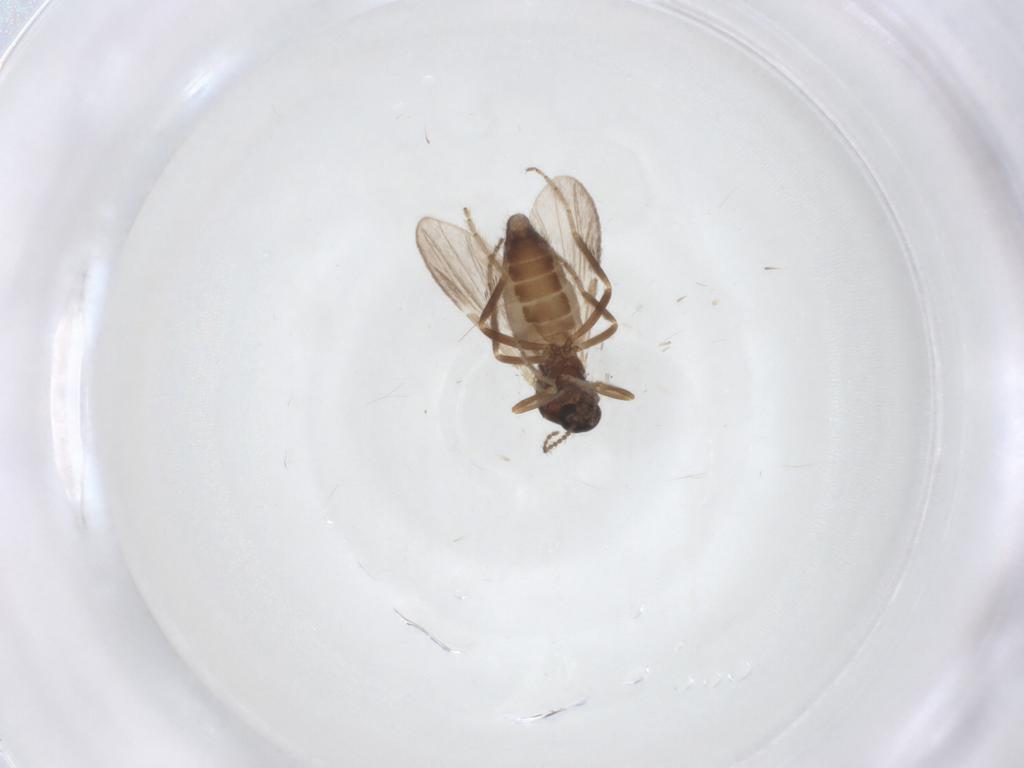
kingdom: Animalia
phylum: Arthropoda
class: Insecta
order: Diptera
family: Ceratopogonidae
